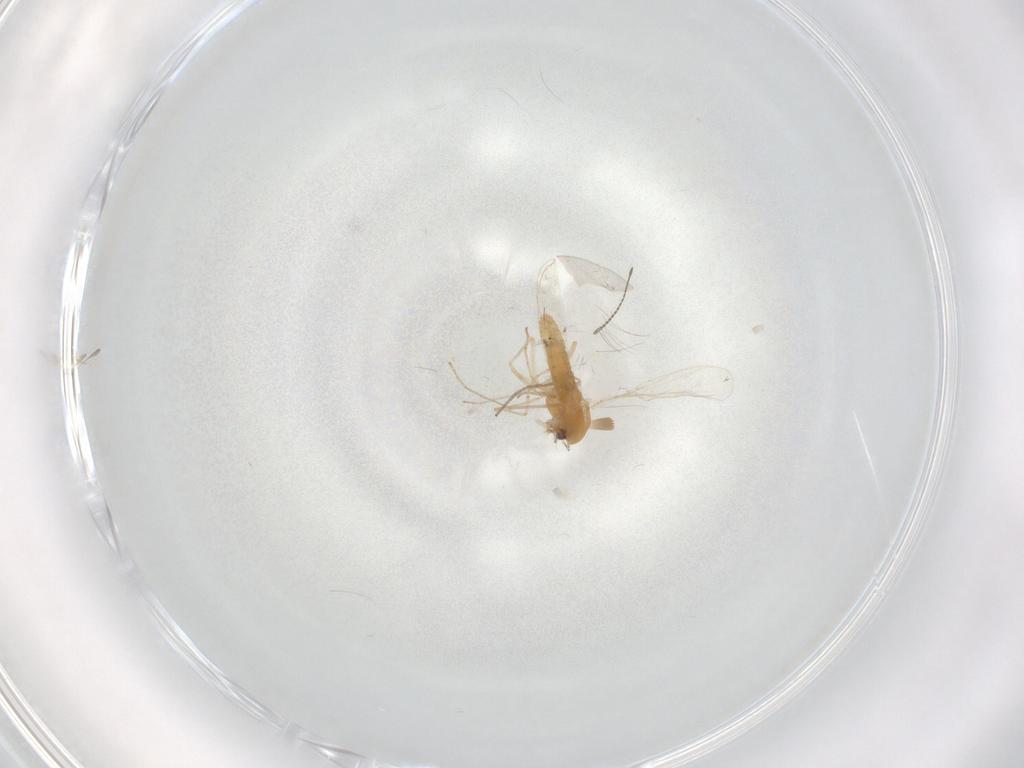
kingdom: Animalia
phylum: Arthropoda
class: Insecta
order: Diptera
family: Chironomidae
